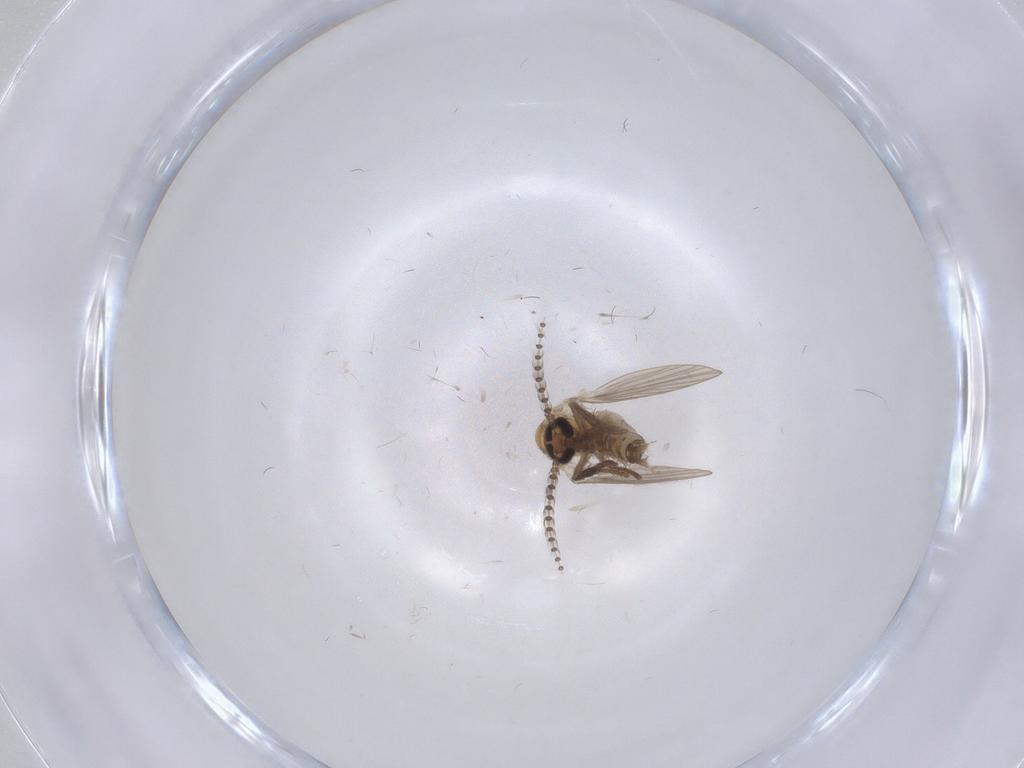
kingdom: Animalia
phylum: Arthropoda
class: Insecta
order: Diptera
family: Psychodidae
